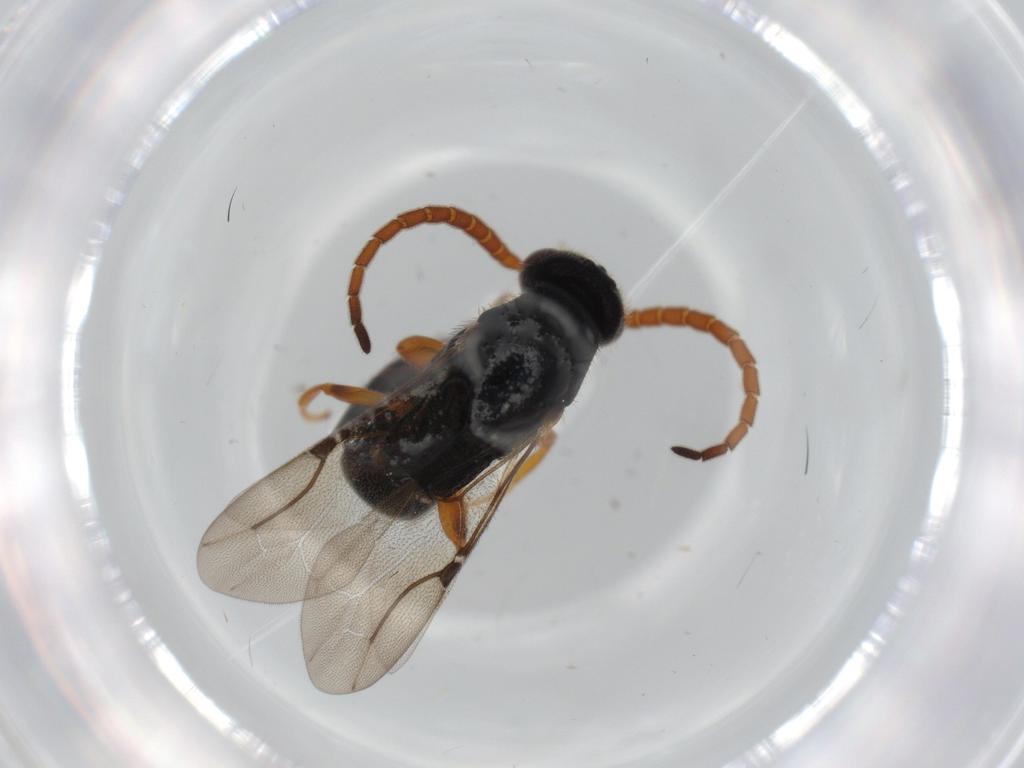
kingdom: Animalia
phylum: Arthropoda
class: Insecta
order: Hymenoptera
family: Bethylidae
